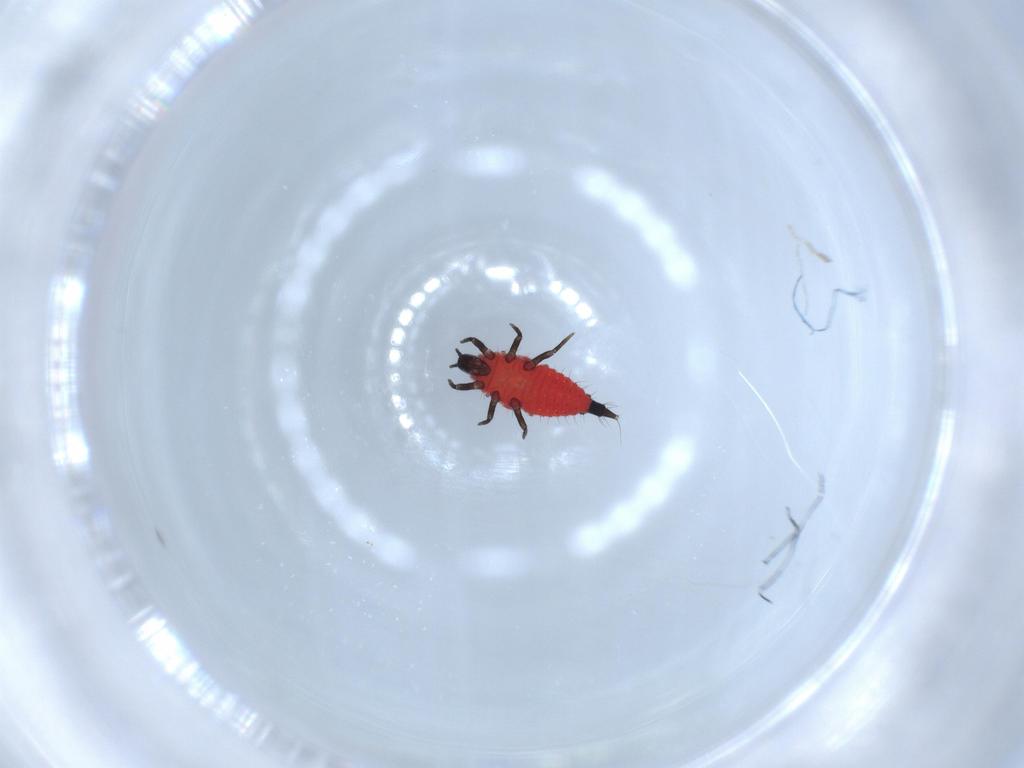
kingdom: Animalia
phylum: Arthropoda
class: Insecta
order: Thysanoptera
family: Phlaeothripidae
